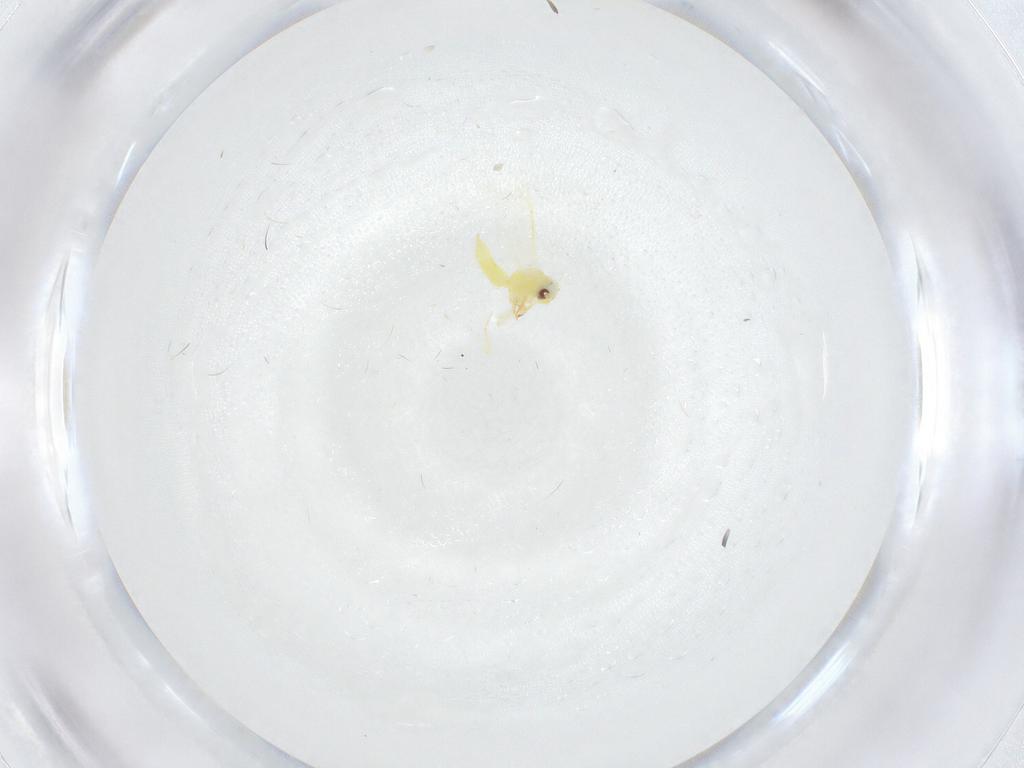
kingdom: Animalia
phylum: Arthropoda
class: Insecta
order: Hemiptera
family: Aleyrodidae
